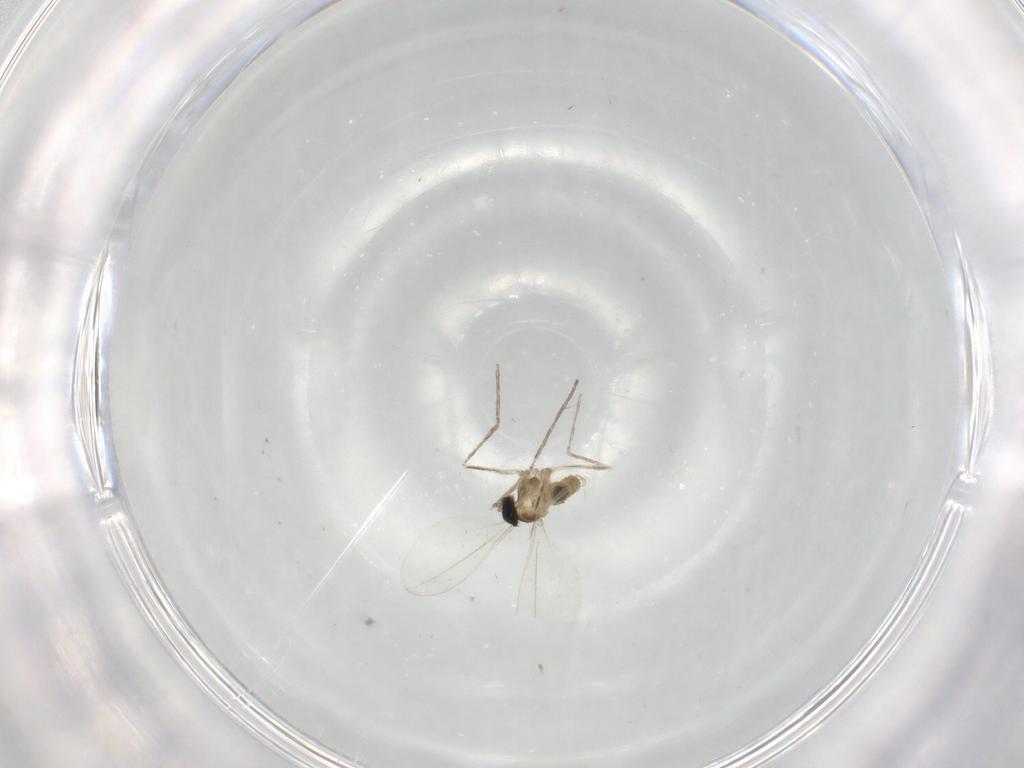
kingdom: Animalia
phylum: Arthropoda
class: Insecta
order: Diptera
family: Cecidomyiidae
